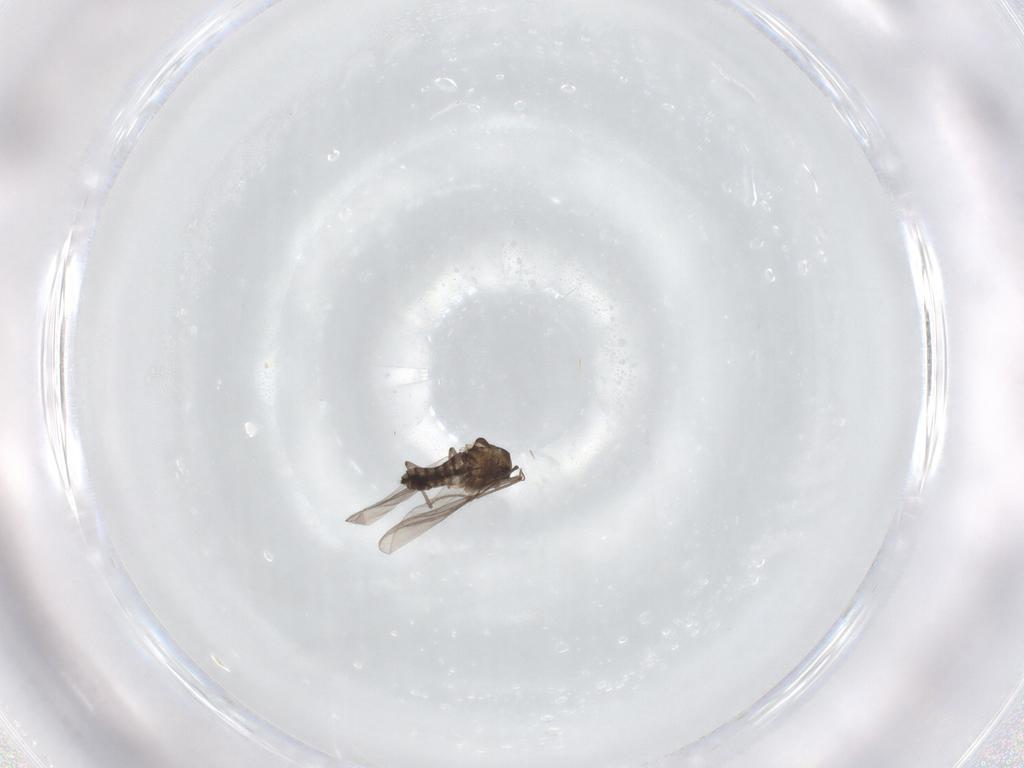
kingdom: Animalia
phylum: Arthropoda
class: Insecta
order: Diptera
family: Chironomidae
